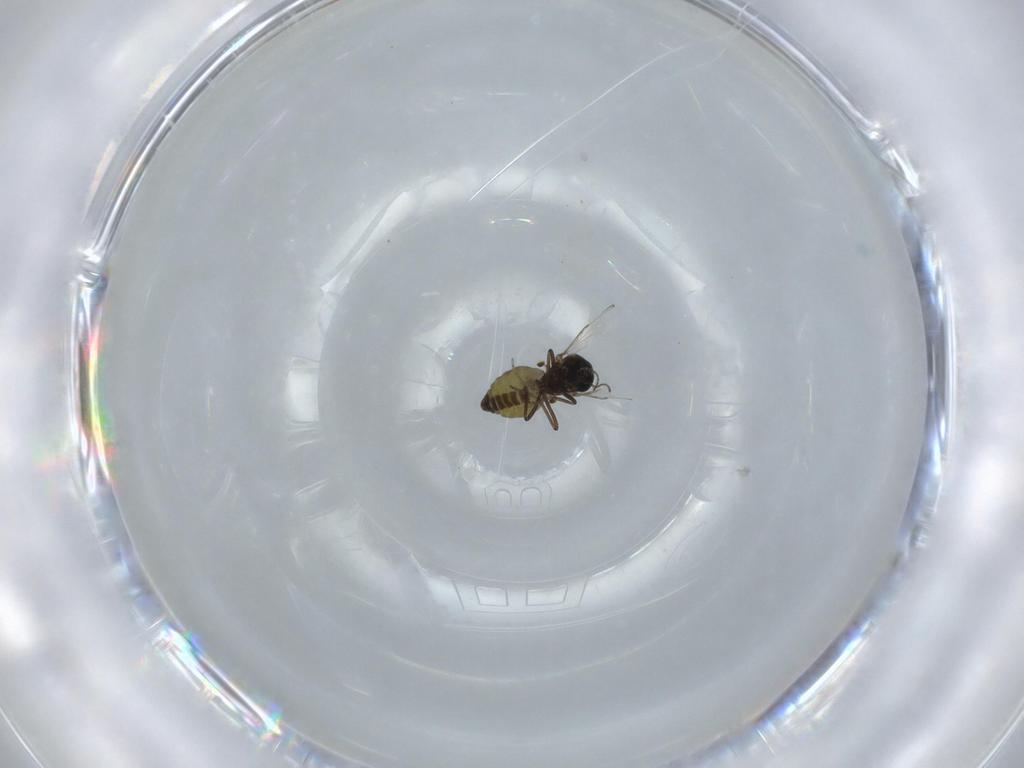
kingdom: Animalia
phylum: Arthropoda
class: Insecta
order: Diptera
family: Ceratopogonidae
